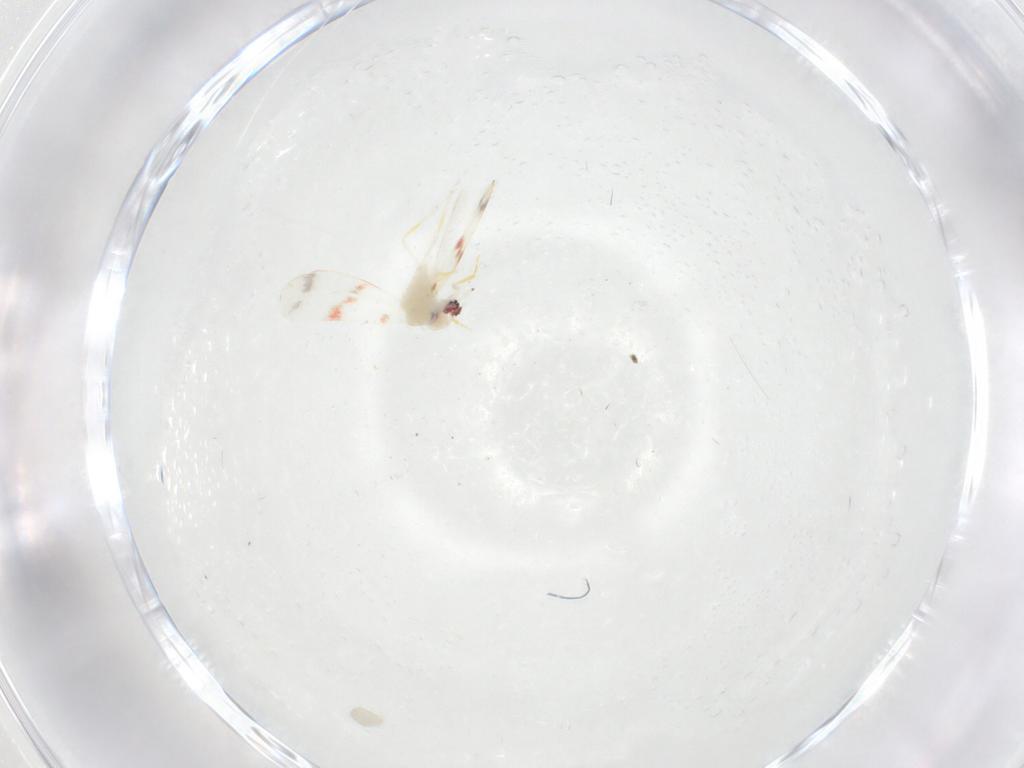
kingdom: Animalia
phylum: Arthropoda
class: Insecta
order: Hemiptera
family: Aleyrodidae
